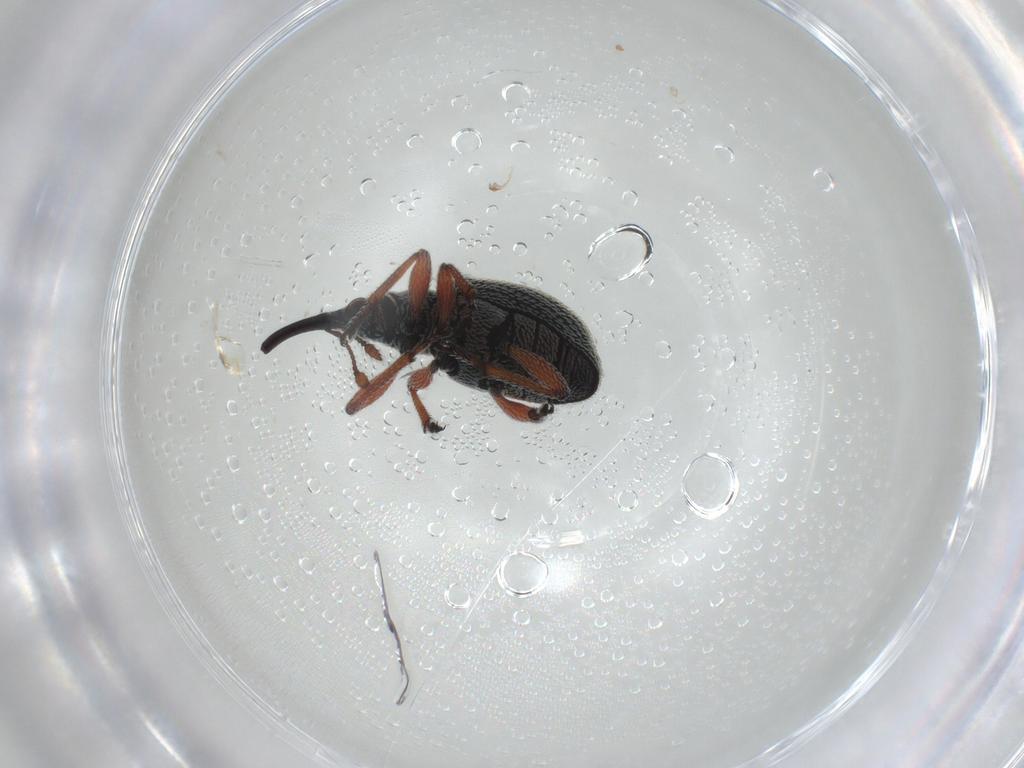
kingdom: Animalia
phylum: Arthropoda
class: Insecta
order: Coleoptera
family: Brentidae
